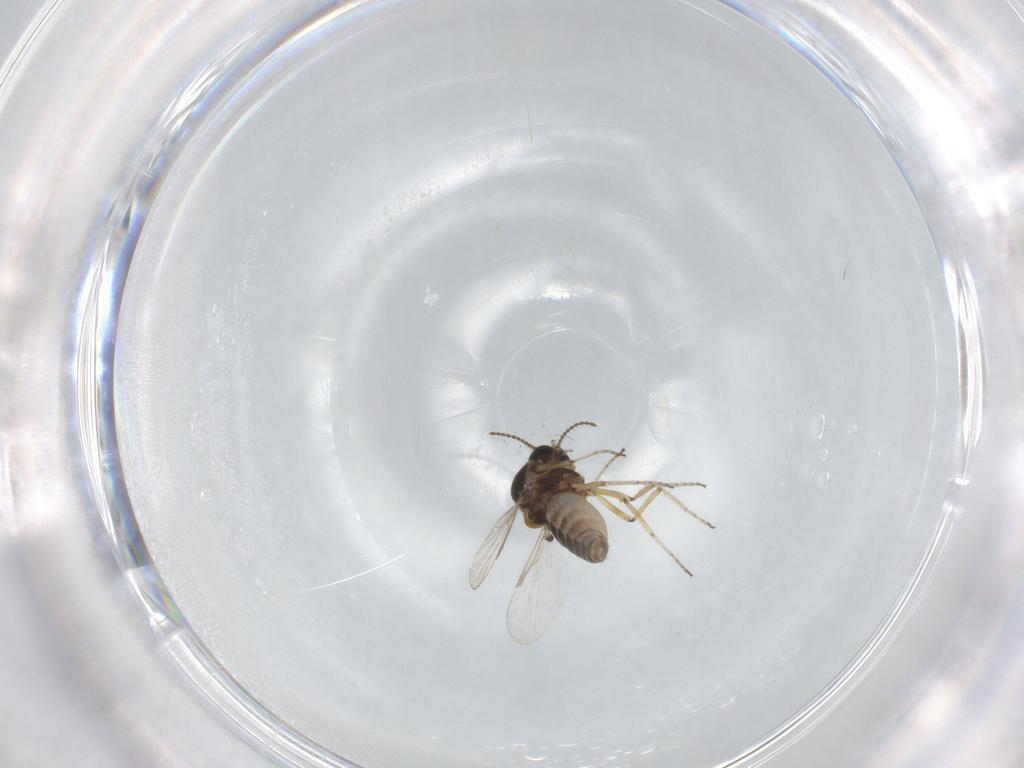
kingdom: Animalia
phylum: Arthropoda
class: Insecta
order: Diptera
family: Ceratopogonidae
